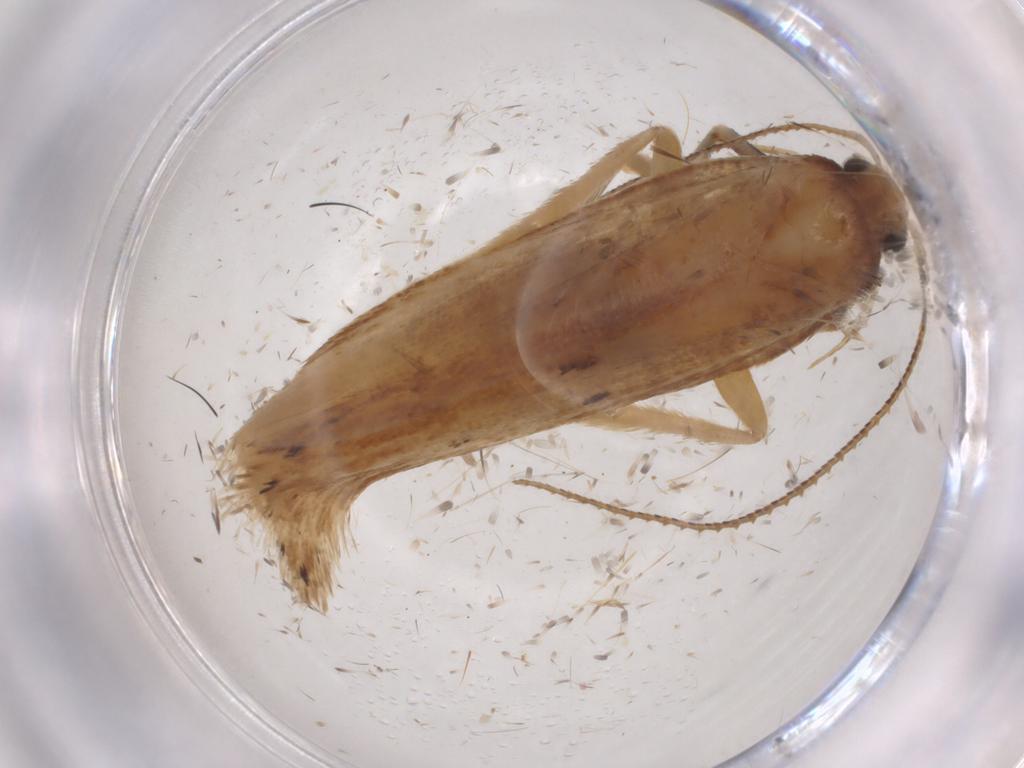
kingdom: Animalia
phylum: Arthropoda
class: Insecta
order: Lepidoptera
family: Gelechiidae
